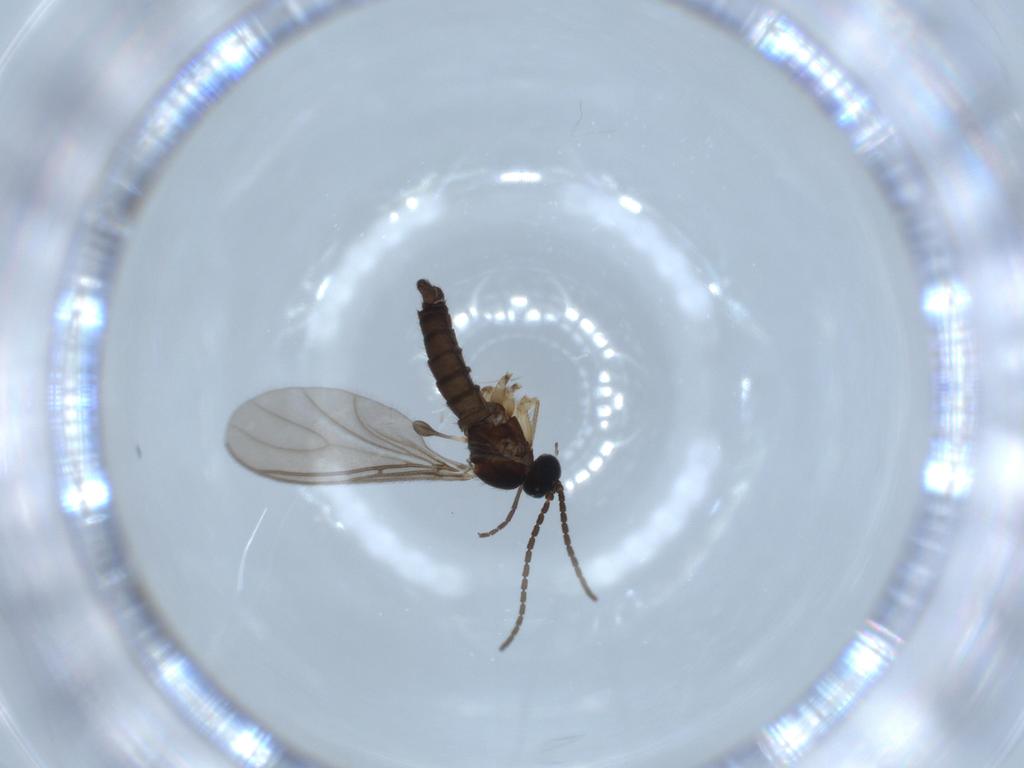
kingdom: Animalia
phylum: Arthropoda
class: Insecta
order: Diptera
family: Sciaridae
